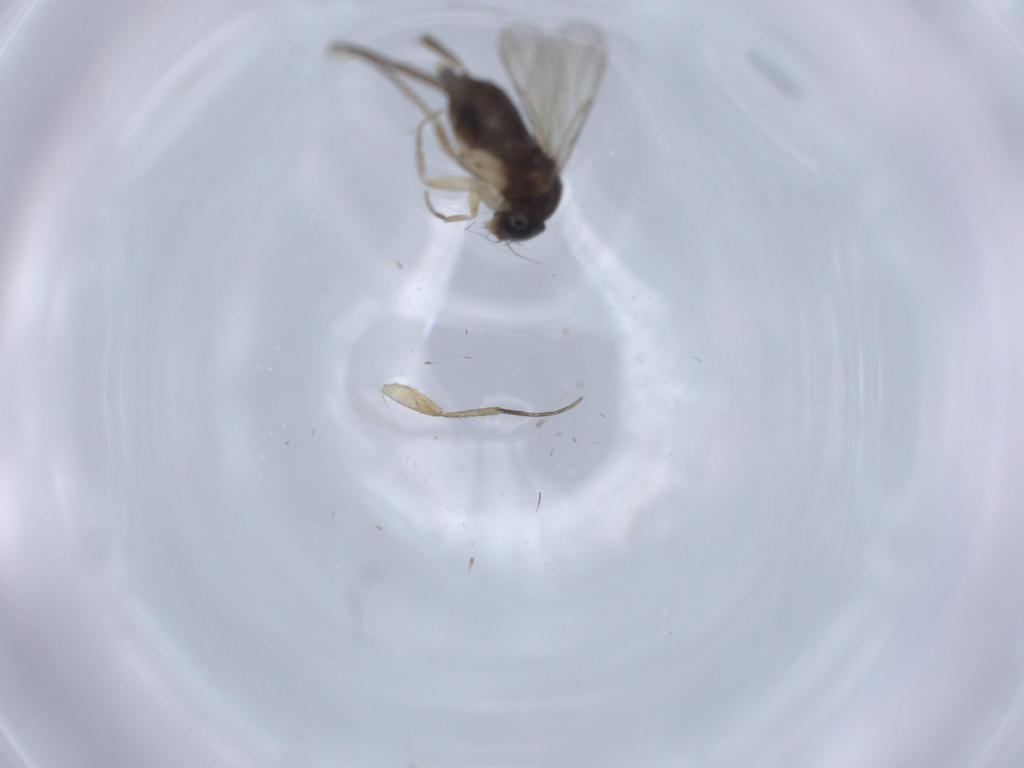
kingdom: Animalia
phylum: Arthropoda
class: Insecta
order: Diptera
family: Phoridae
